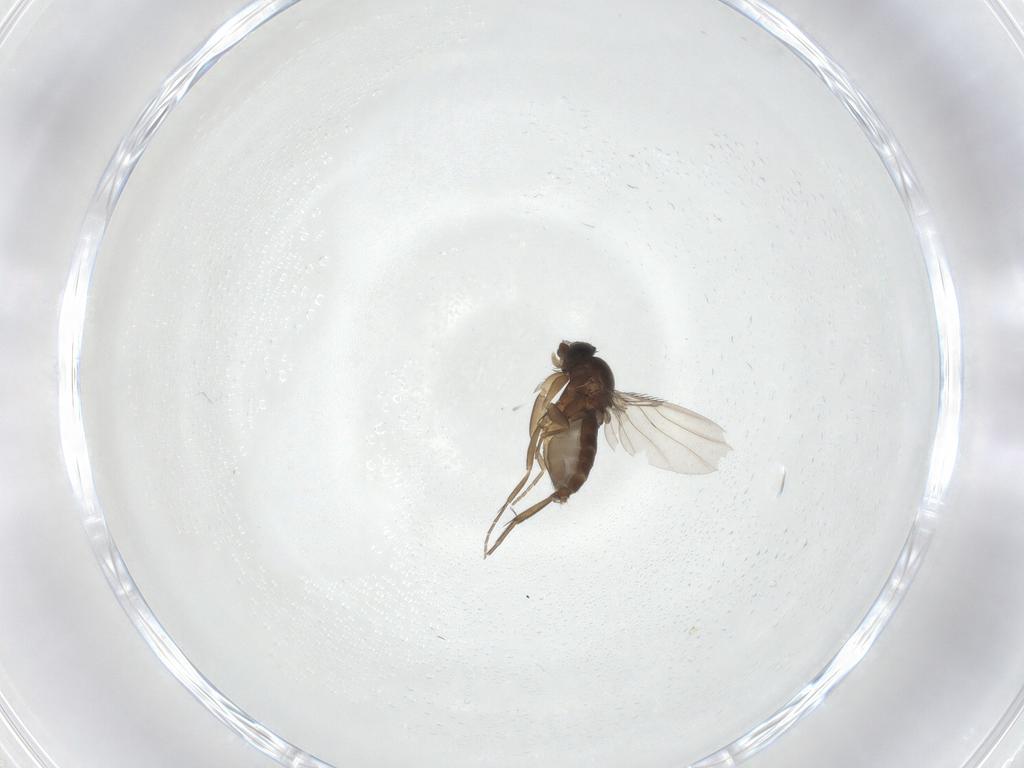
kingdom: Animalia
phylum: Arthropoda
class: Insecta
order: Diptera
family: Phoridae
